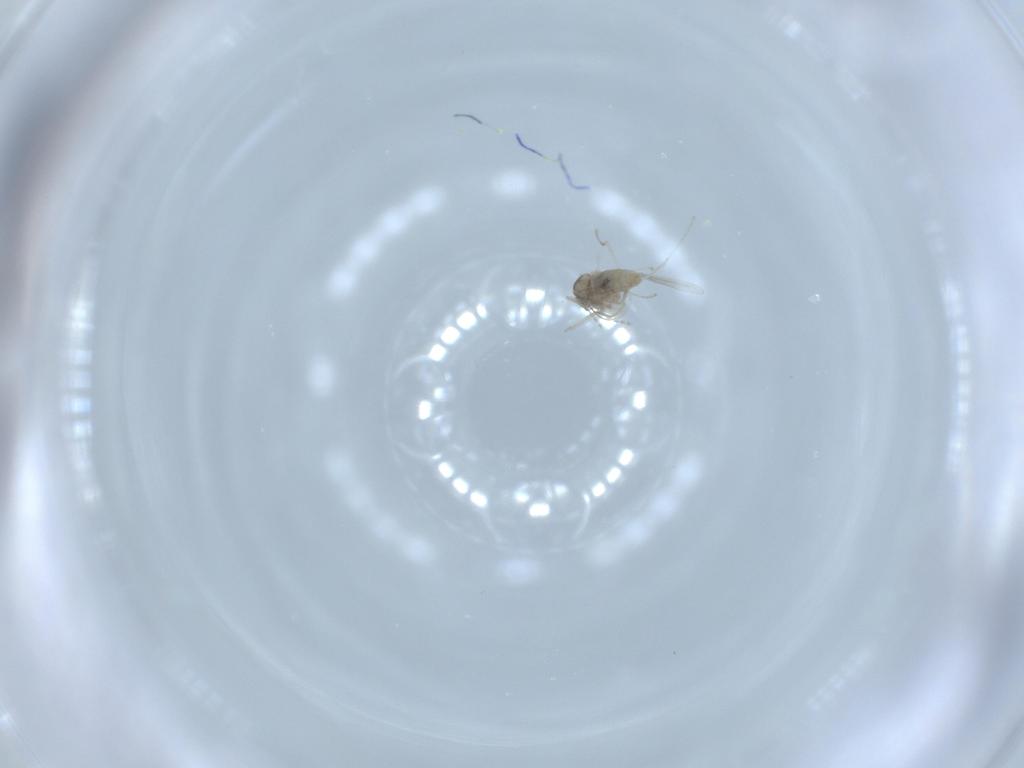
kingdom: Animalia
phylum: Arthropoda
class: Insecta
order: Diptera
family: Cecidomyiidae
